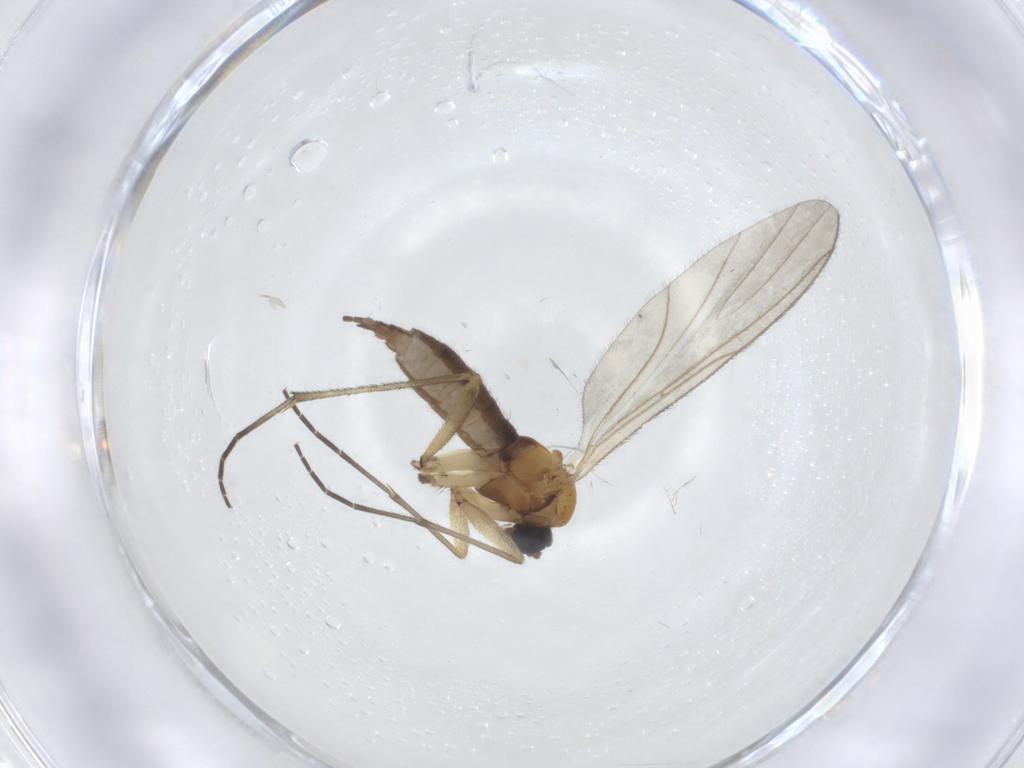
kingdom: Animalia
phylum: Arthropoda
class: Insecta
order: Diptera
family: Sciaridae
